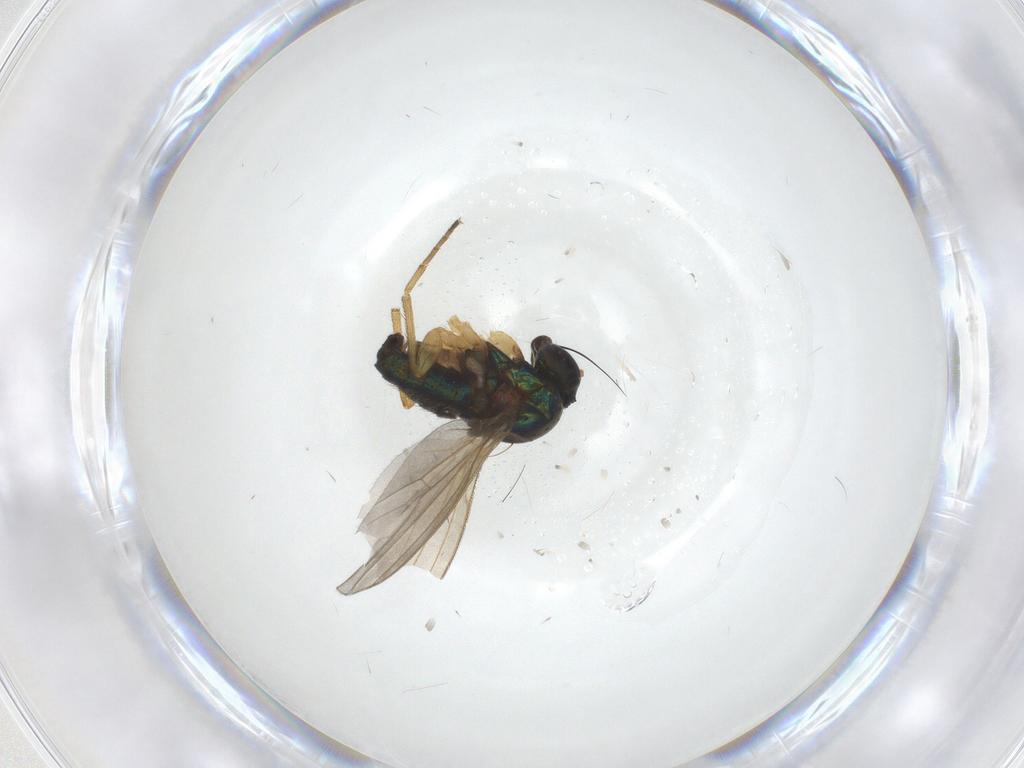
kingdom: Animalia
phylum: Arthropoda
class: Insecta
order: Diptera
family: Dolichopodidae
